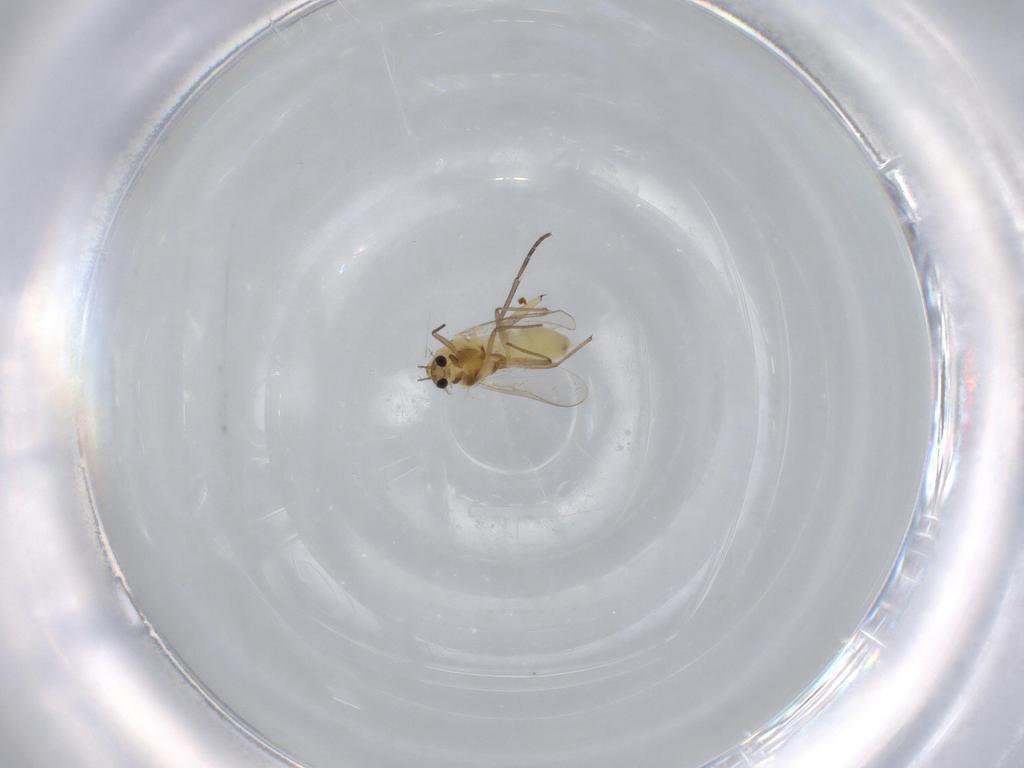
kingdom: Animalia
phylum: Arthropoda
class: Insecta
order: Diptera
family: Chironomidae
